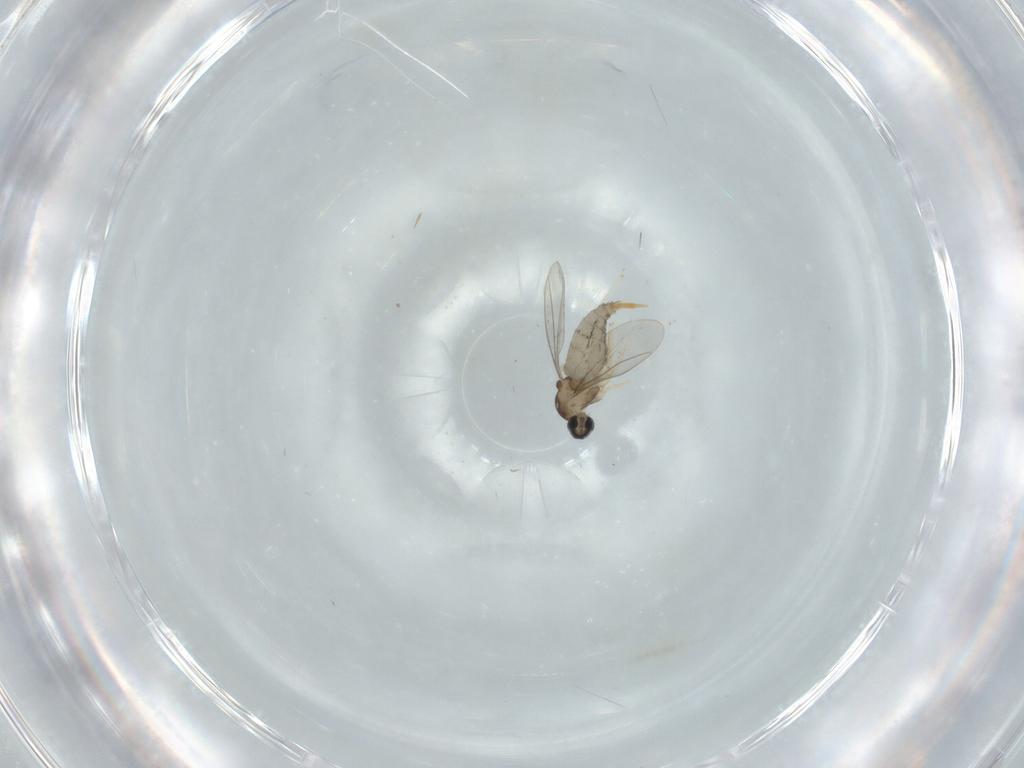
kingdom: Animalia
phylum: Arthropoda
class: Insecta
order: Diptera
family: Cecidomyiidae
